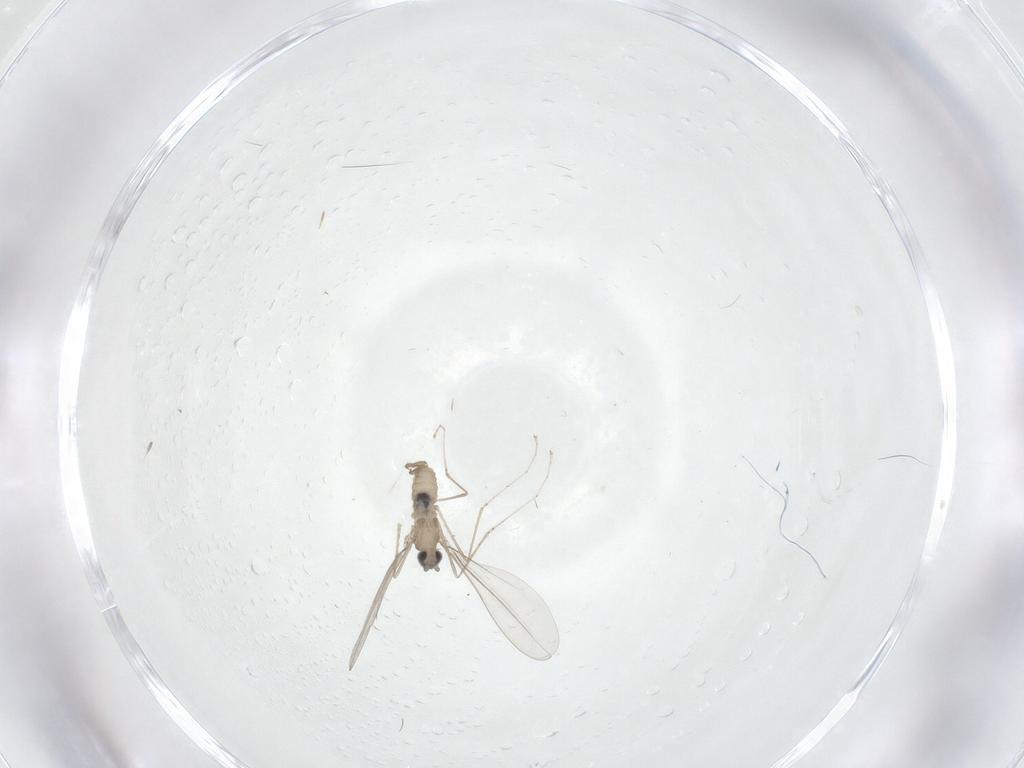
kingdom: Animalia
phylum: Arthropoda
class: Insecta
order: Diptera
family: Cecidomyiidae
